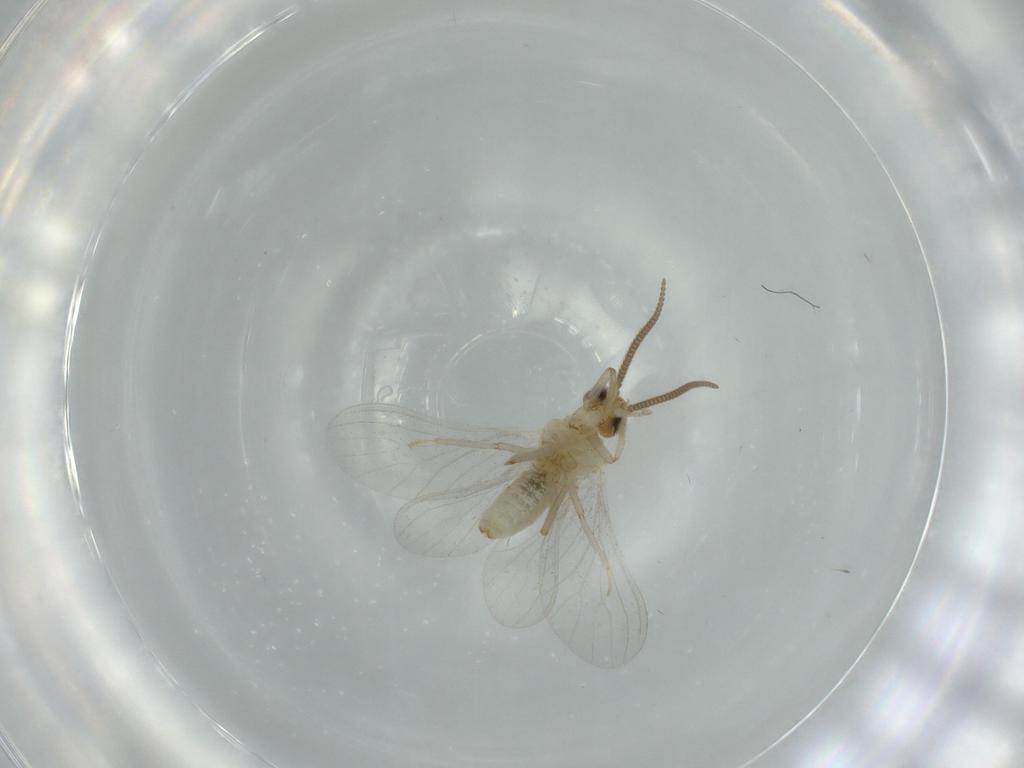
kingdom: Animalia
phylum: Arthropoda
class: Insecta
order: Neuroptera
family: Coniopterygidae
